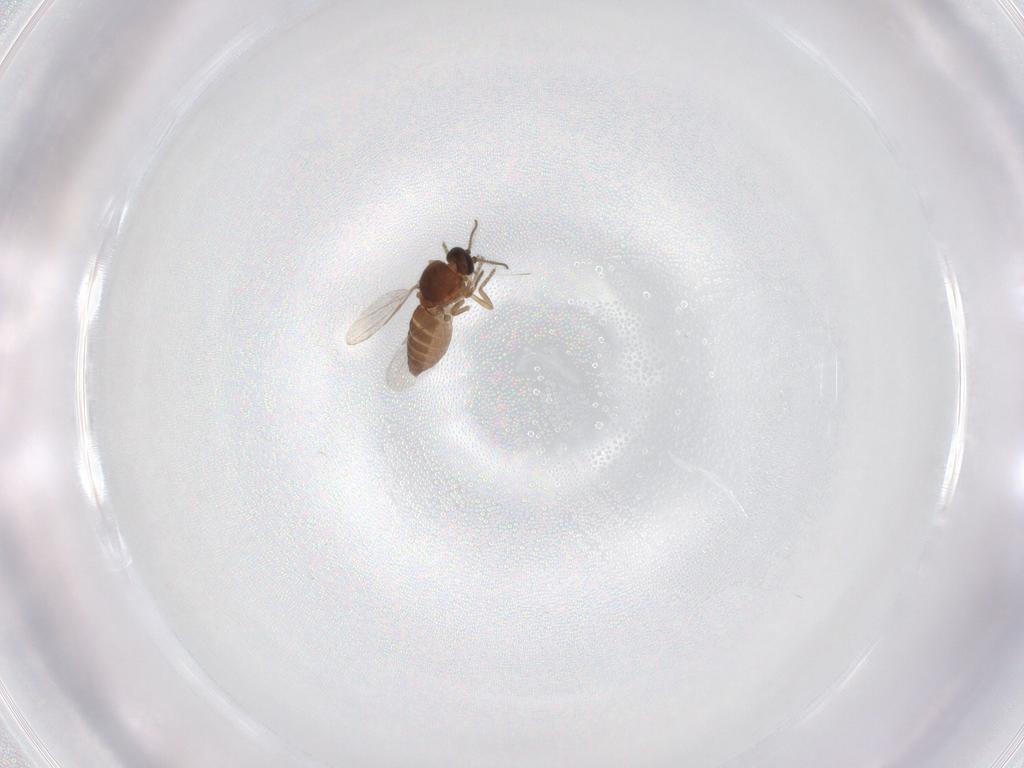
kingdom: Animalia
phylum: Arthropoda
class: Insecta
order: Diptera
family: Ceratopogonidae
